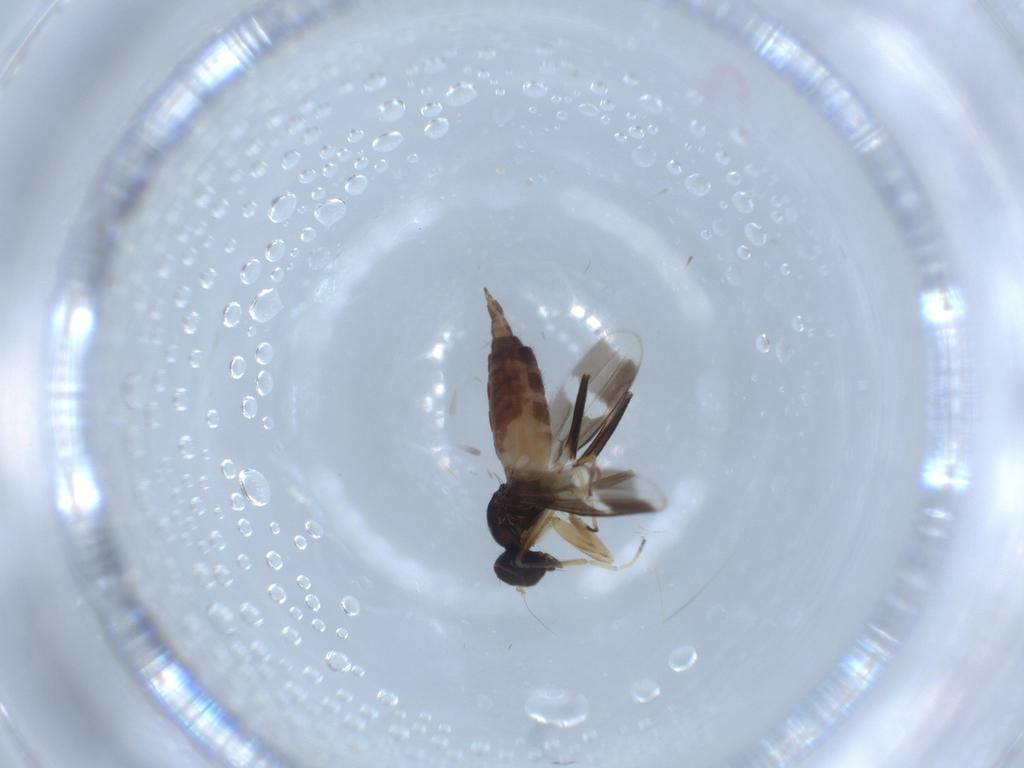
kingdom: Animalia
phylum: Arthropoda
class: Insecta
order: Diptera
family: Hybotidae
